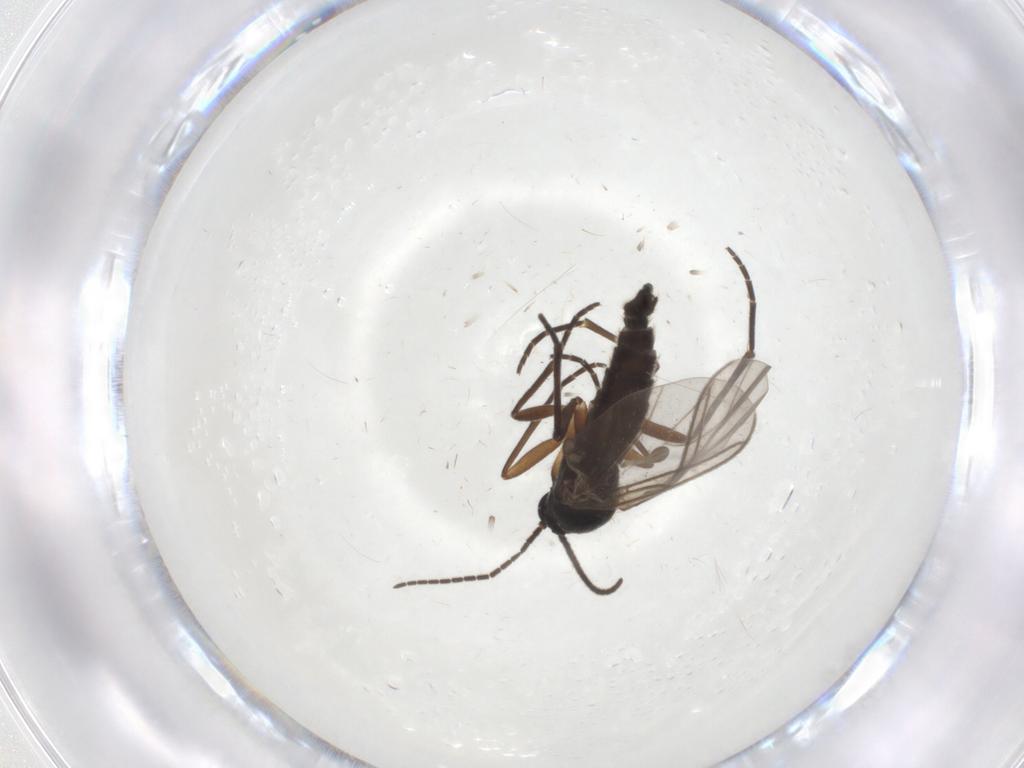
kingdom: Animalia
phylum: Arthropoda
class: Insecta
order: Diptera
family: Sciaridae
